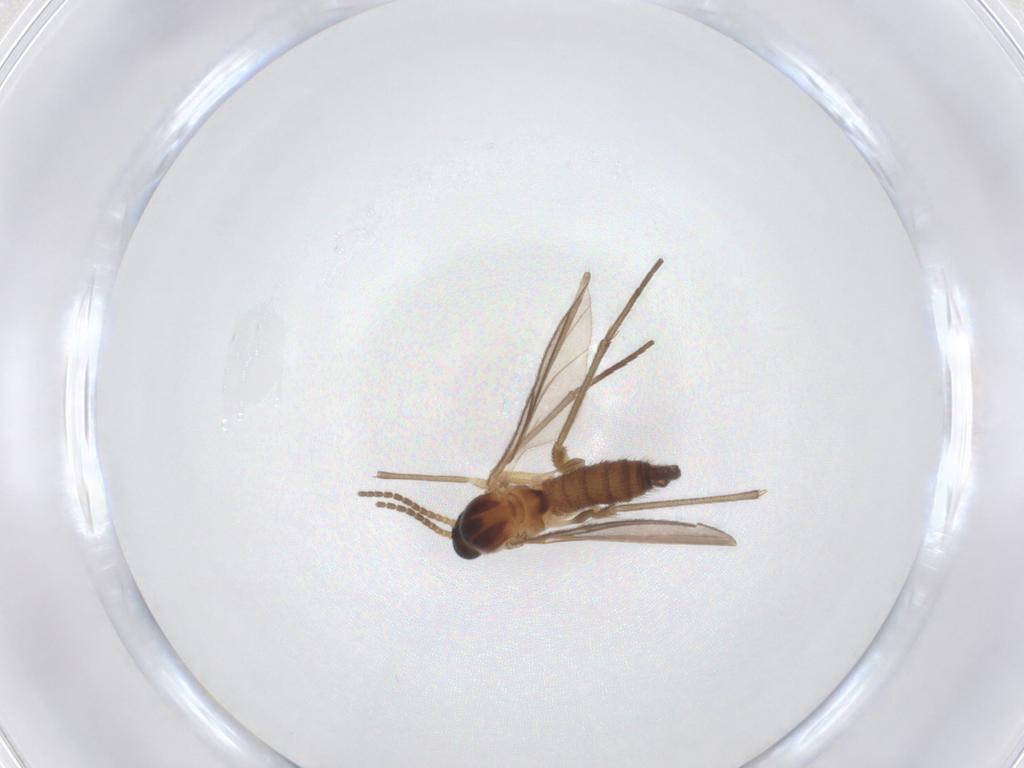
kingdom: Animalia
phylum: Arthropoda
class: Insecta
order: Diptera
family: Sciaridae
